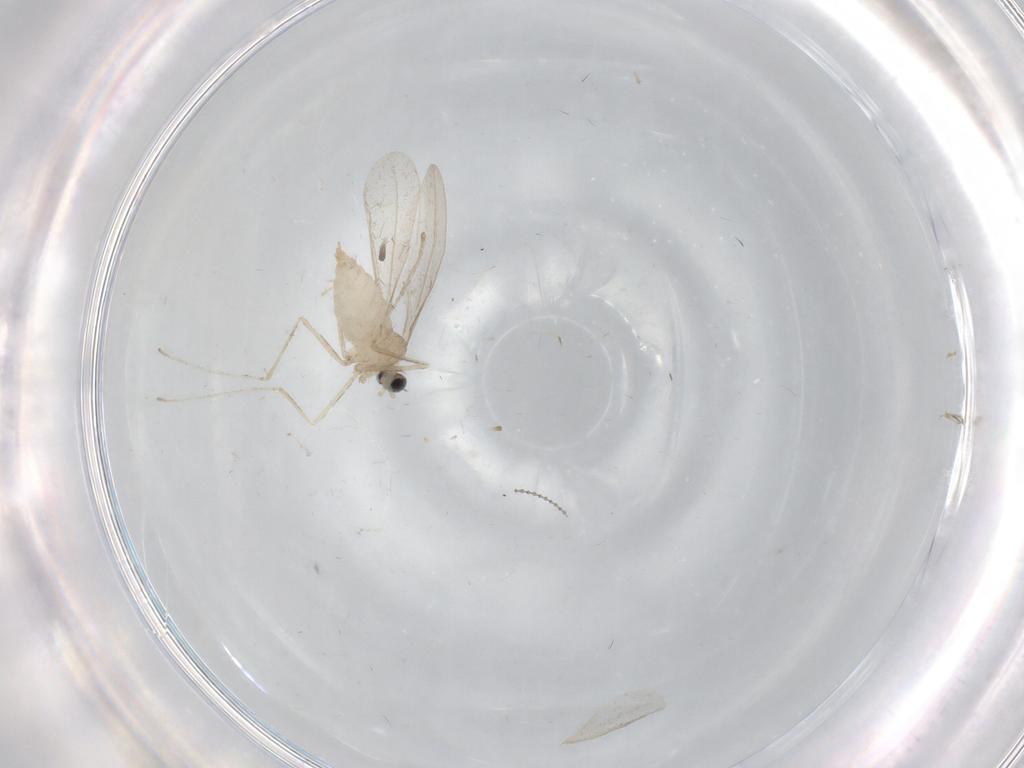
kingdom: Animalia
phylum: Arthropoda
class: Insecta
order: Diptera
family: Cecidomyiidae
